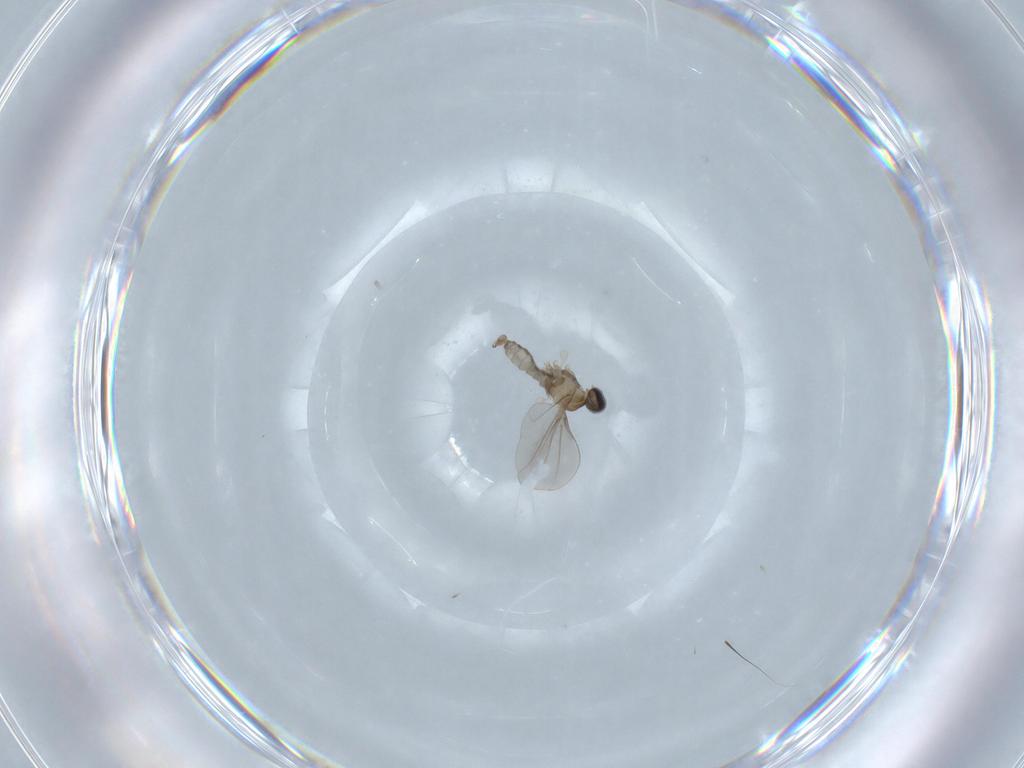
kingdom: Animalia
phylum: Arthropoda
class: Insecta
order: Diptera
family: Cecidomyiidae
